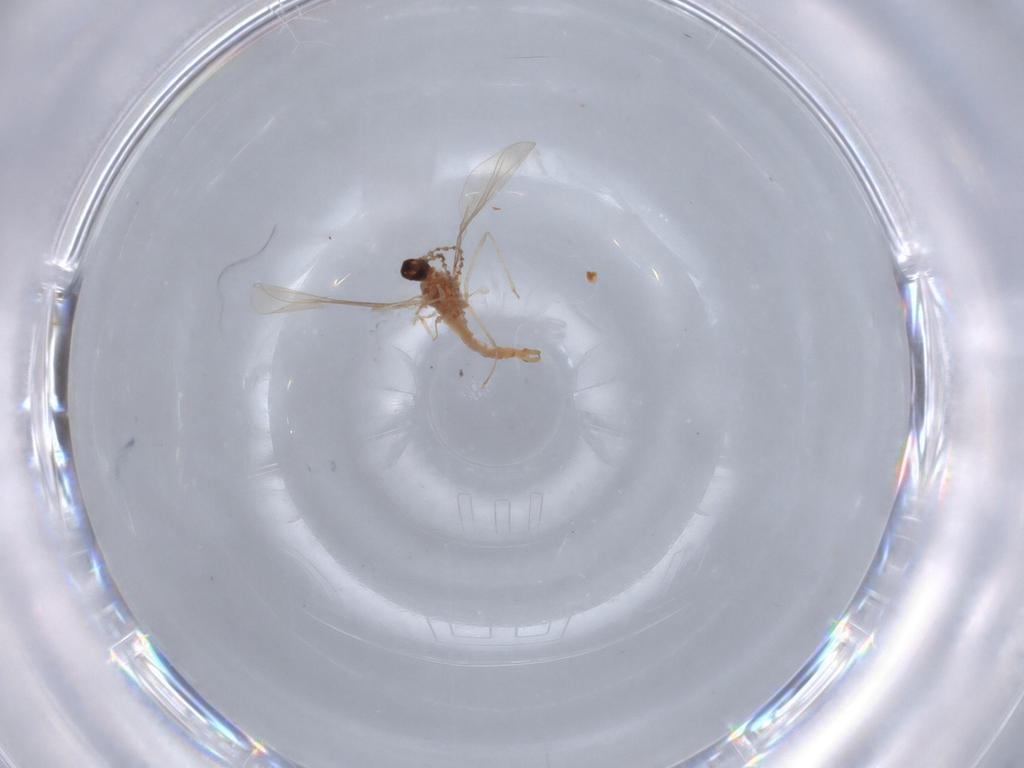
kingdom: Animalia
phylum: Arthropoda
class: Insecta
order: Diptera
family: Cecidomyiidae
